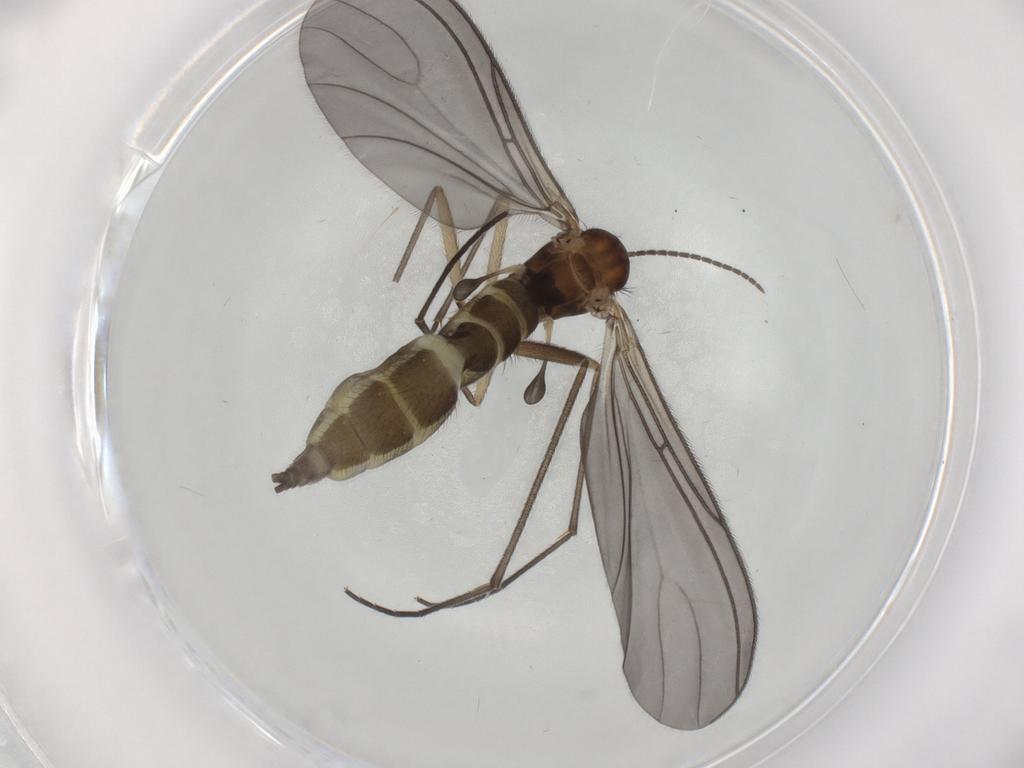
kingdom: Animalia
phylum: Arthropoda
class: Insecta
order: Diptera
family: Sciaridae
